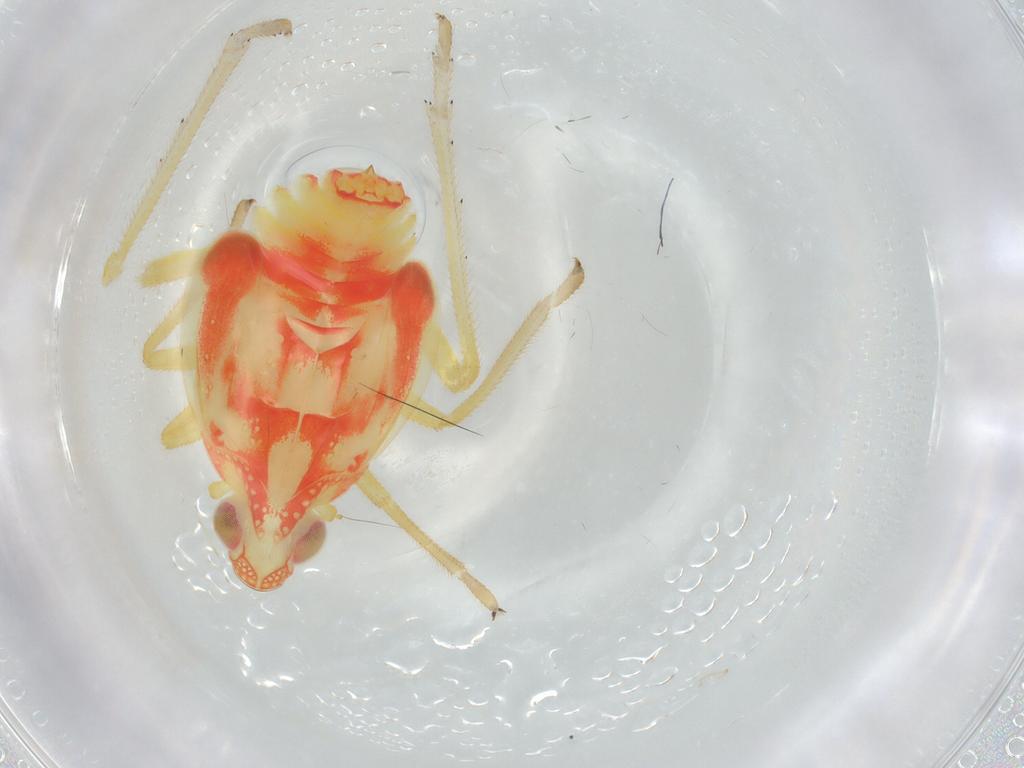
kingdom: Animalia
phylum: Arthropoda
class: Insecta
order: Hemiptera
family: Tropiduchidae
